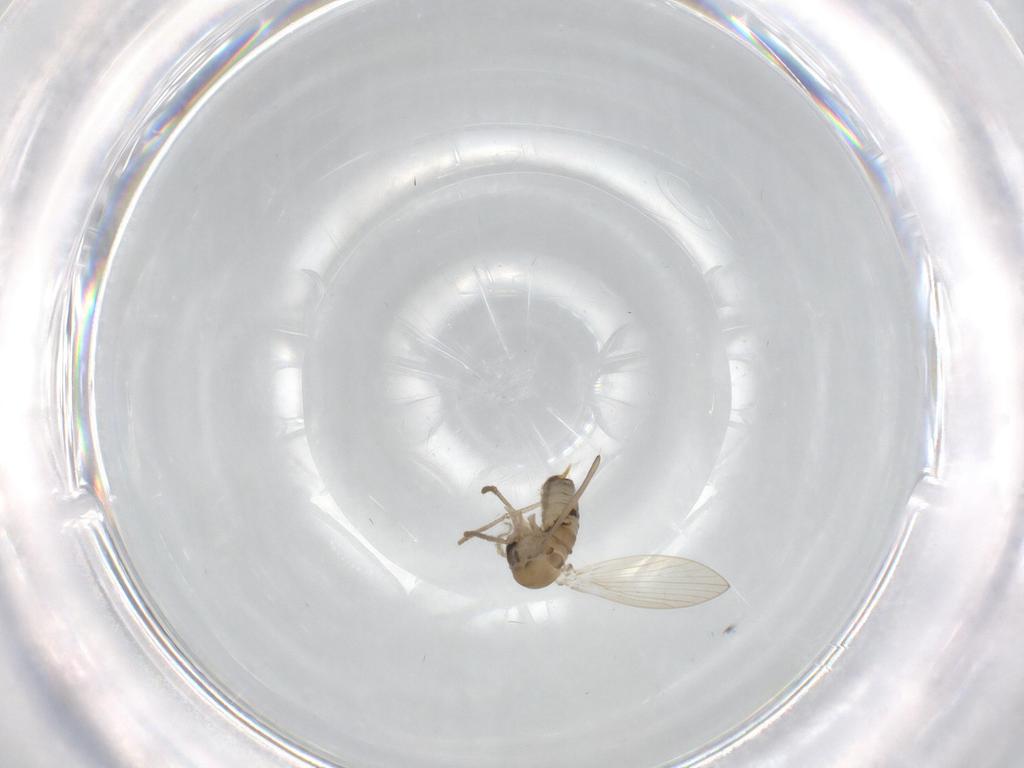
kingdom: Animalia
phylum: Arthropoda
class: Insecta
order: Diptera
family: Psychodidae
